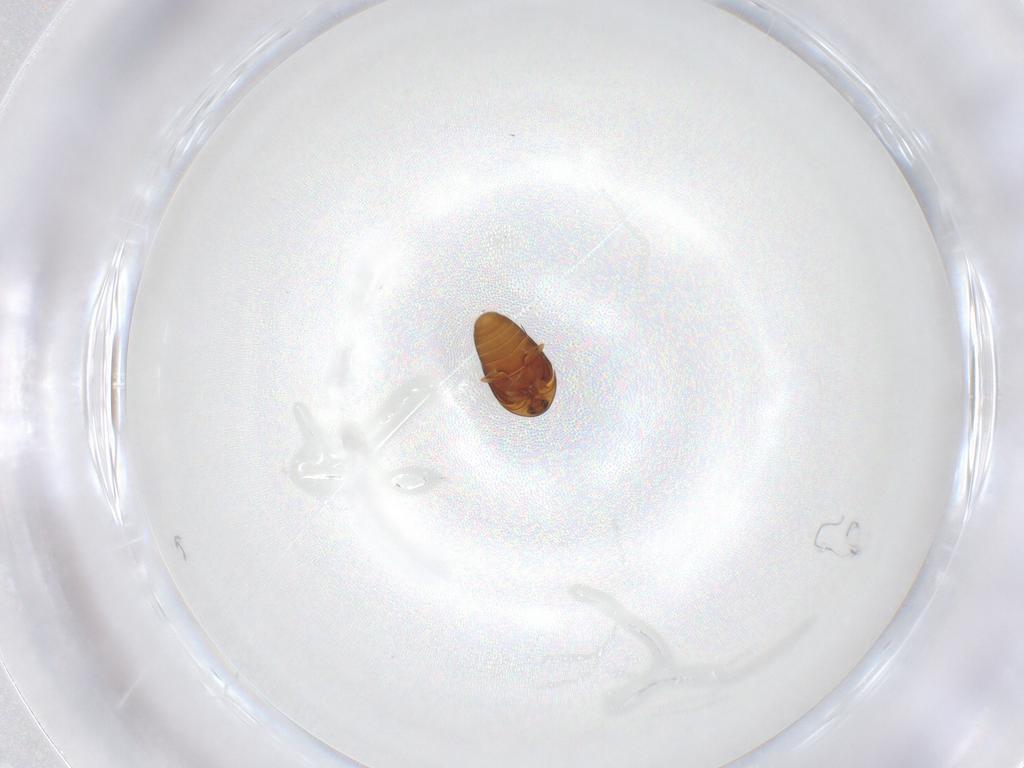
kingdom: Animalia
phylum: Arthropoda
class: Insecta
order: Coleoptera
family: Corylophidae
